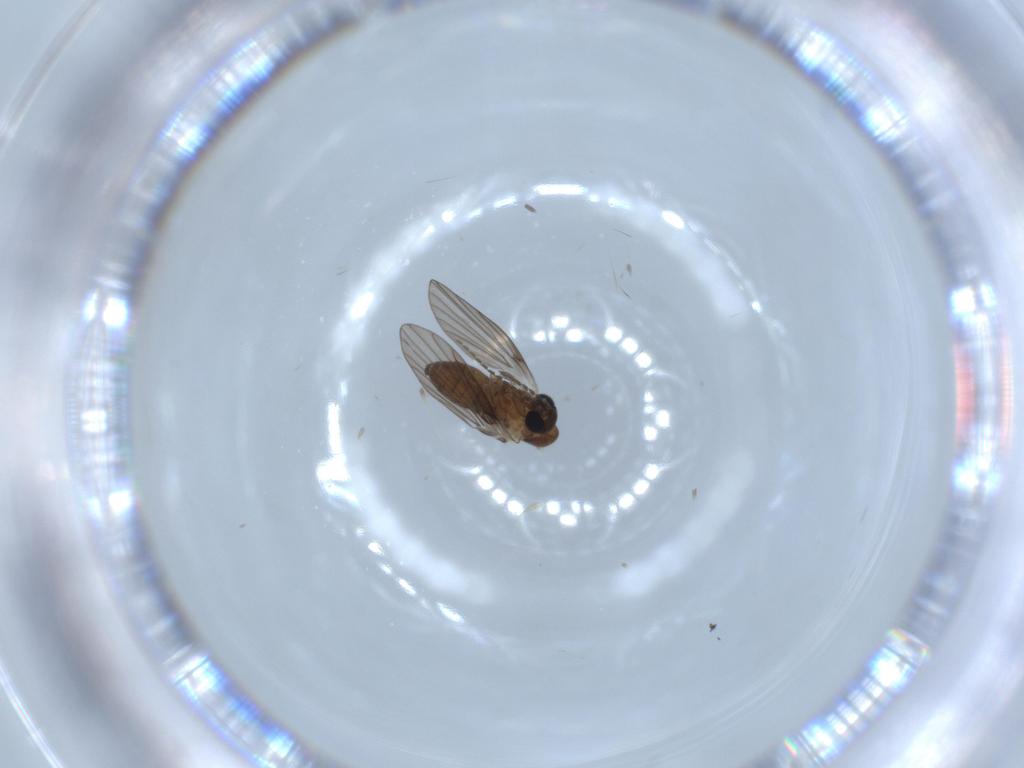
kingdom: Animalia
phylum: Arthropoda
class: Insecta
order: Diptera
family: Psychodidae
